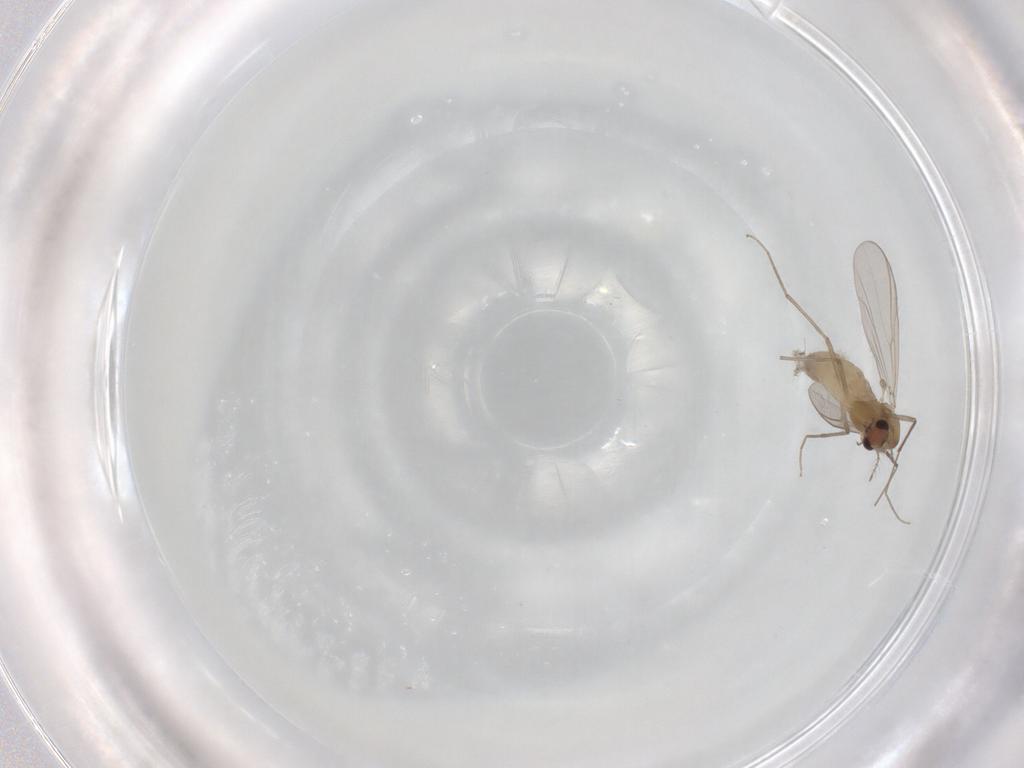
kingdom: Animalia
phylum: Arthropoda
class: Insecta
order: Diptera
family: Chironomidae
